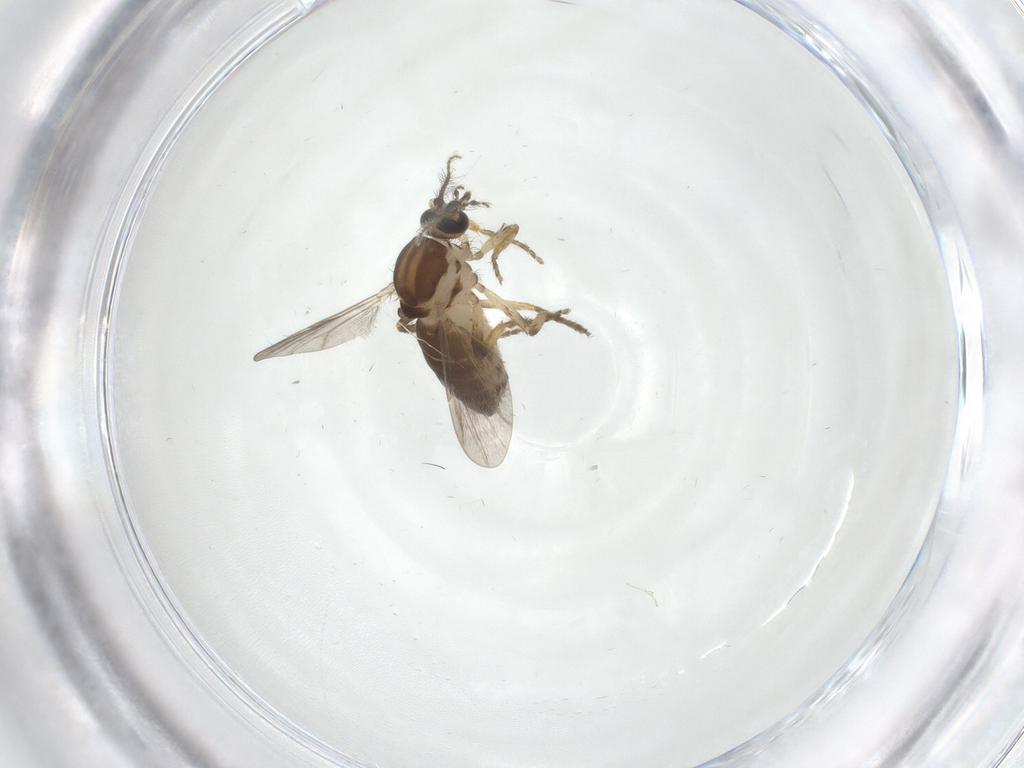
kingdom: Animalia
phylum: Arthropoda
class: Insecta
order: Diptera
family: Ceratopogonidae
